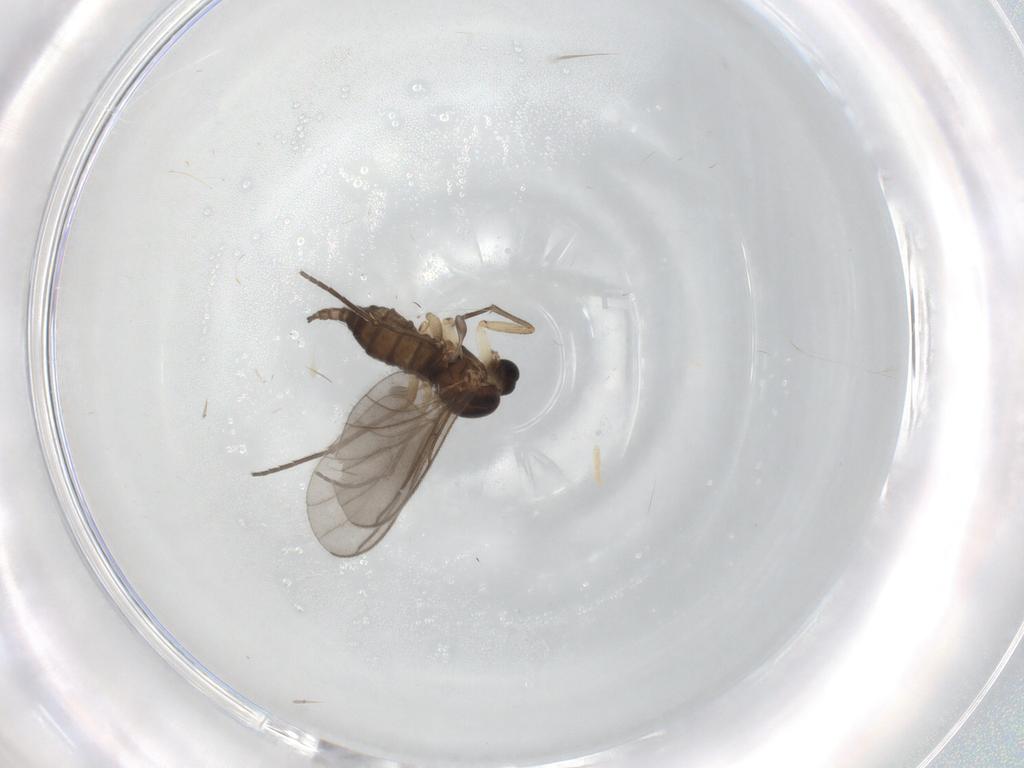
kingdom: Animalia
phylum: Arthropoda
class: Insecta
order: Diptera
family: Sciaridae
